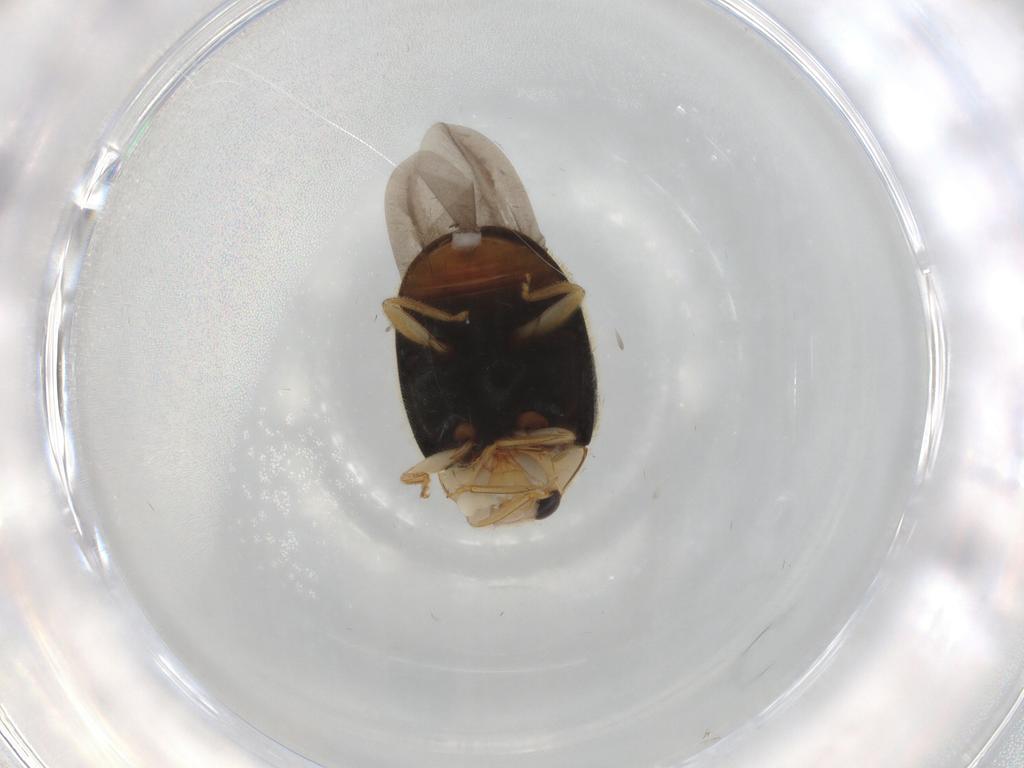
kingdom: Animalia
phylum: Arthropoda
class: Insecta
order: Coleoptera
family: Coccinellidae
